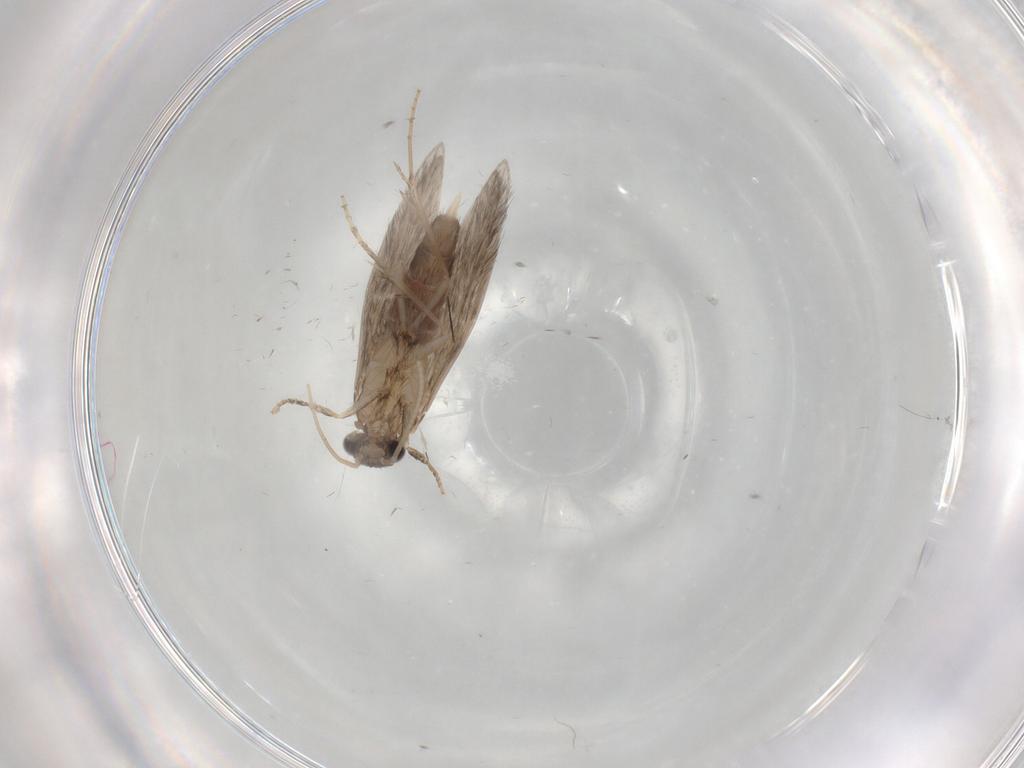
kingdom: Animalia
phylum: Arthropoda
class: Insecta
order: Trichoptera
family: Hydroptilidae
